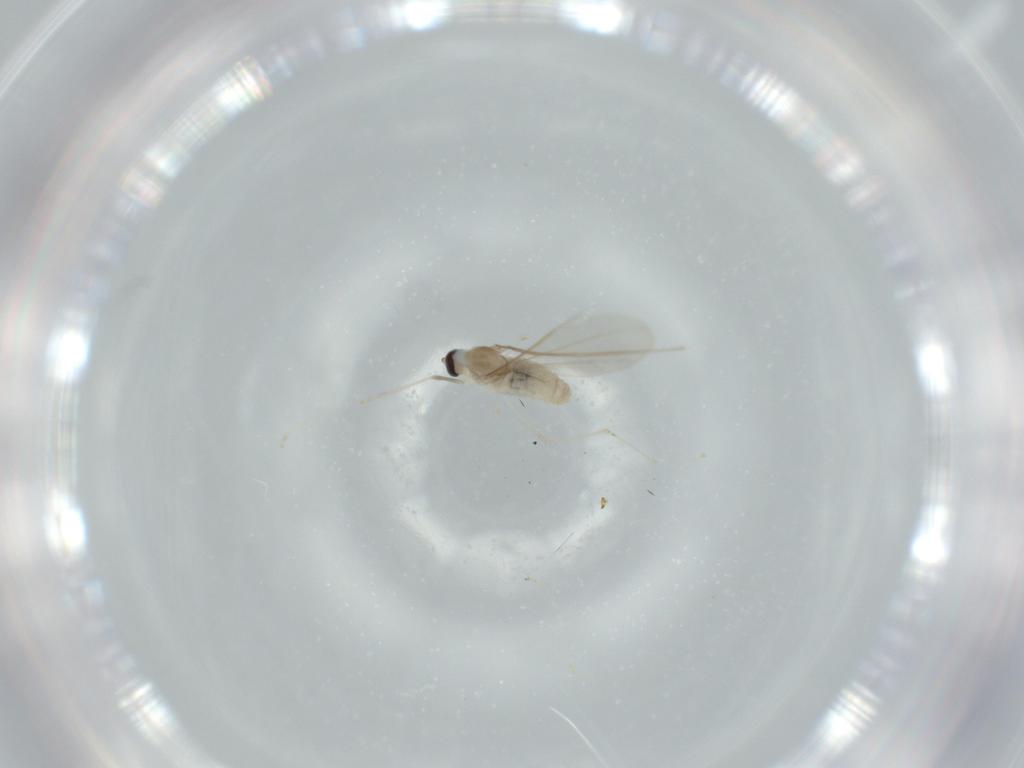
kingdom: Animalia
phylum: Arthropoda
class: Insecta
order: Diptera
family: Cecidomyiidae
